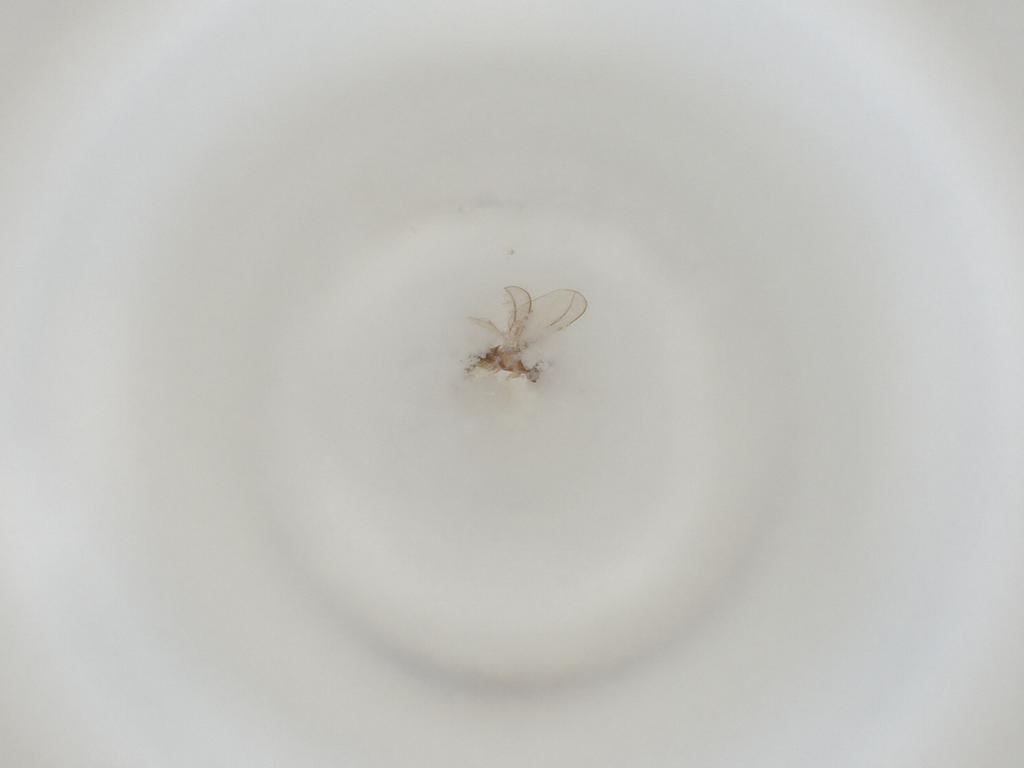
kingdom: Animalia
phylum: Arthropoda
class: Insecta
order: Diptera
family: Cecidomyiidae
